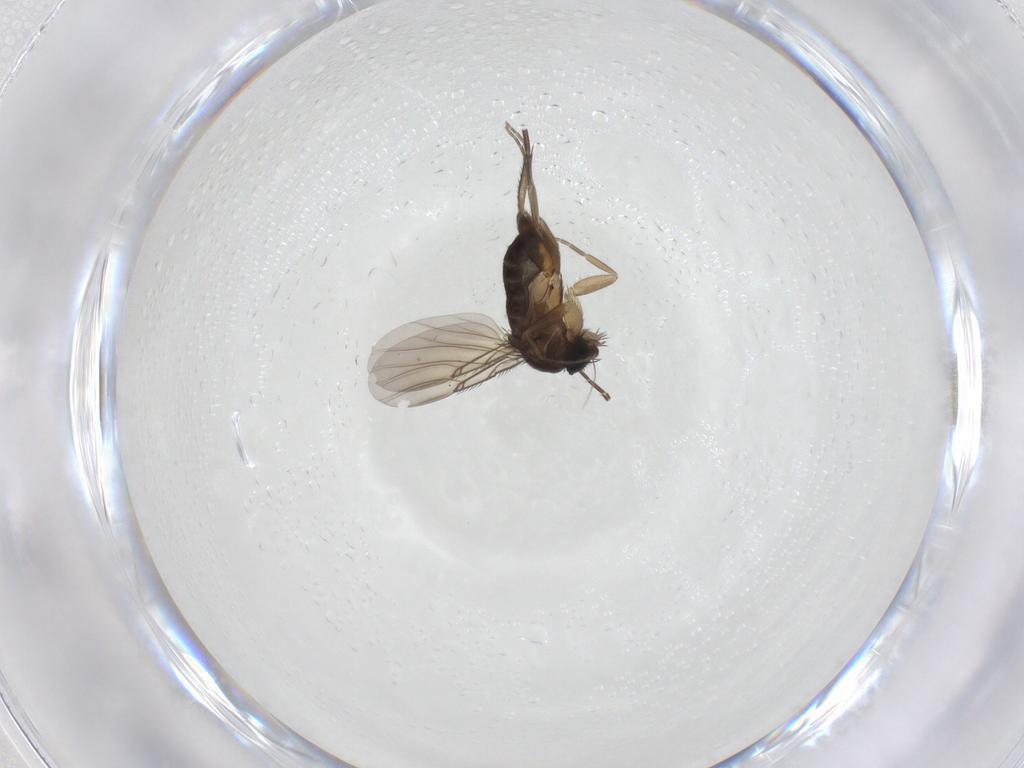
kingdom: Animalia
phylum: Arthropoda
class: Insecta
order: Diptera
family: Phoridae
